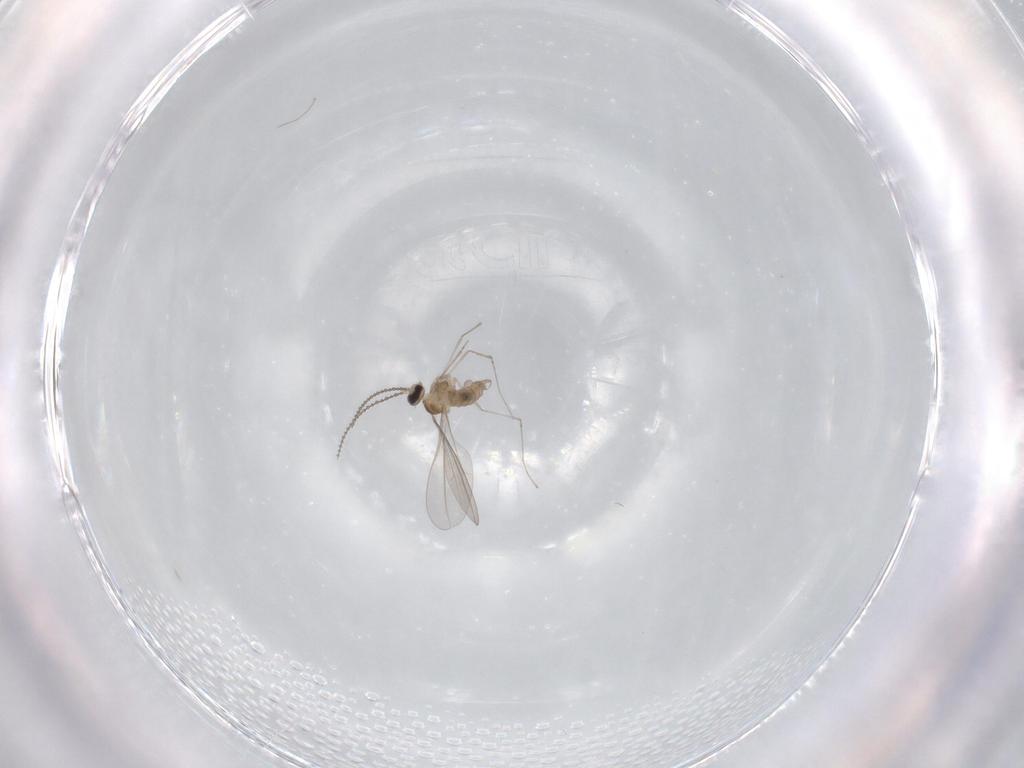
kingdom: Animalia
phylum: Arthropoda
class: Insecta
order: Diptera
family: Cecidomyiidae
